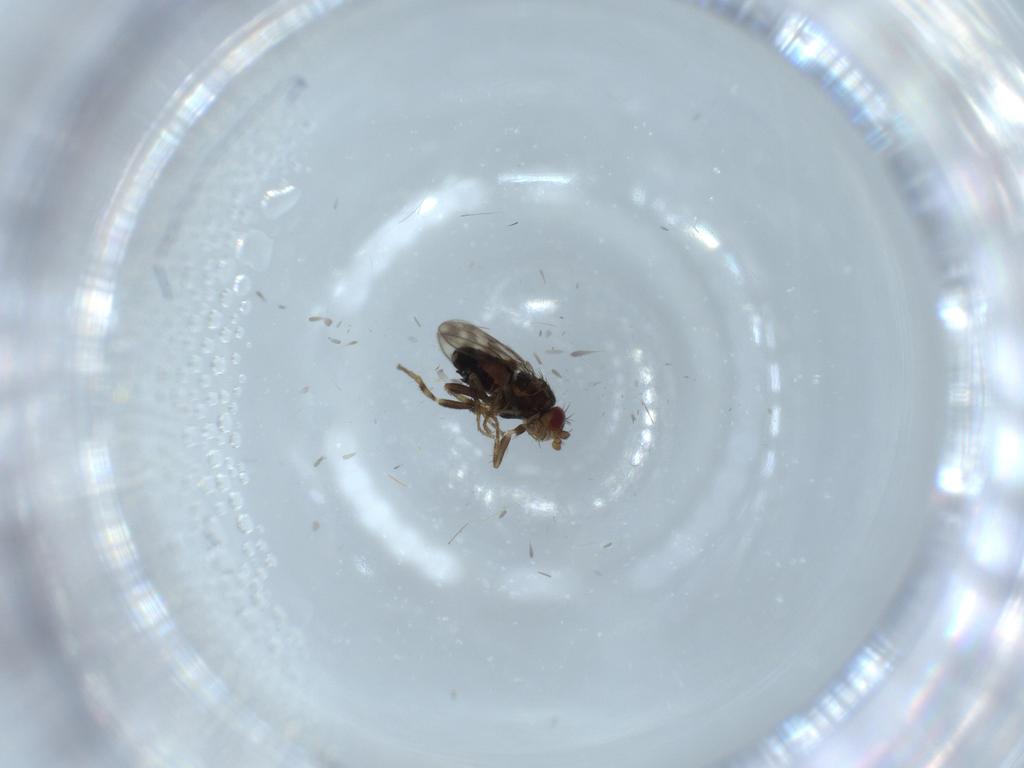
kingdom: Animalia
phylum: Arthropoda
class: Insecta
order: Diptera
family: Sphaeroceridae
